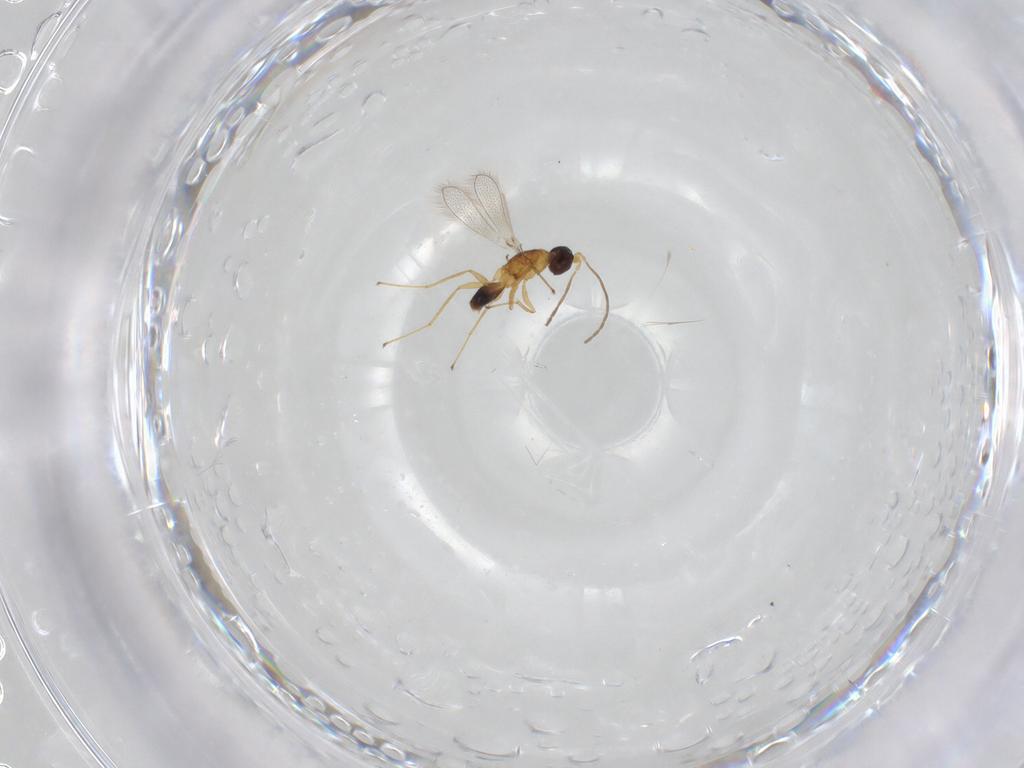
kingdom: Animalia
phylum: Arthropoda
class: Insecta
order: Hymenoptera
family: Mymaridae
